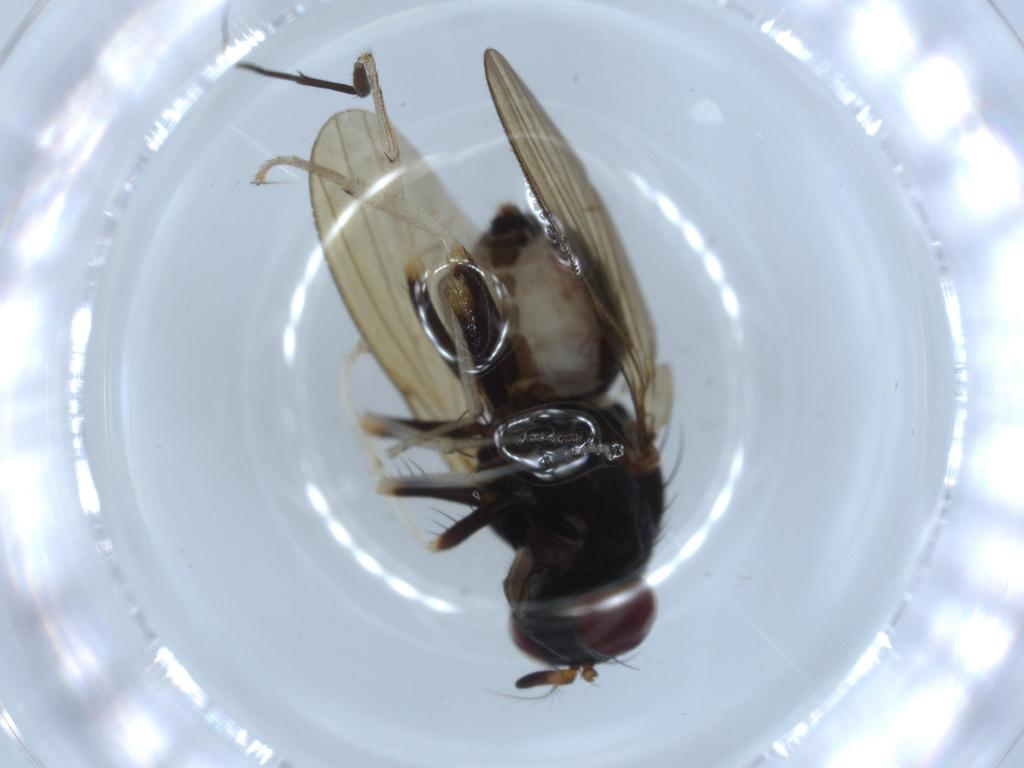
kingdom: Animalia
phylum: Arthropoda
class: Insecta
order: Diptera
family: Cecidomyiidae
